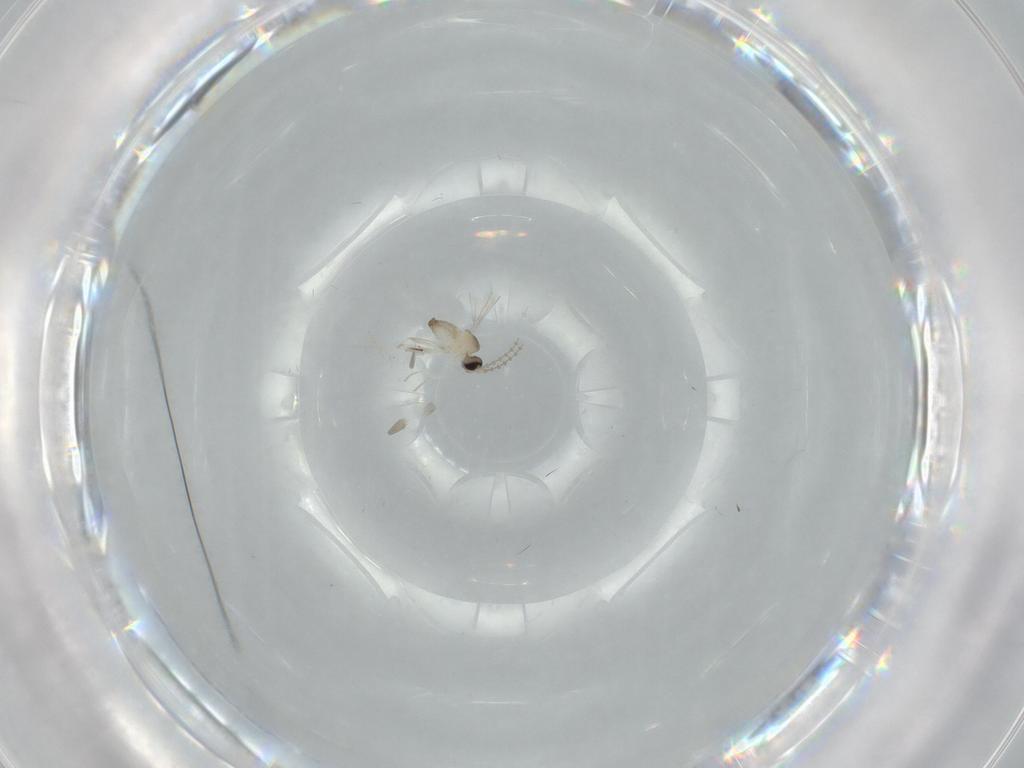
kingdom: Animalia
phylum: Arthropoda
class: Insecta
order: Diptera
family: Cecidomyiidae
